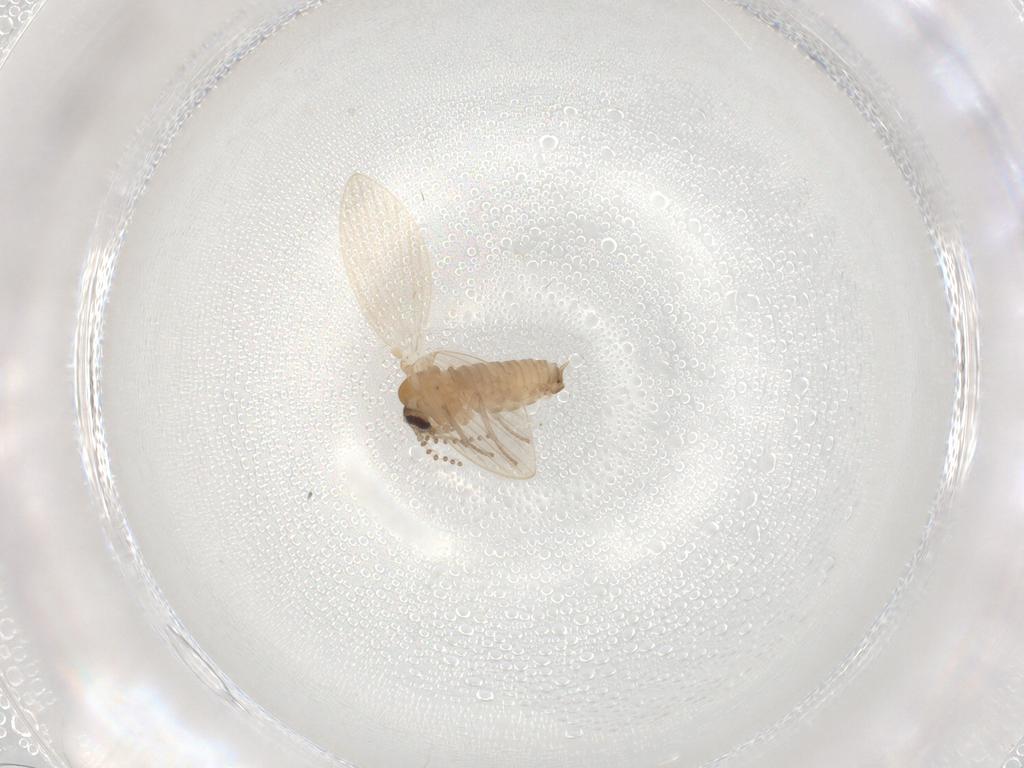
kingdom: Animalia
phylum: Arthropoda
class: Insecta
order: Diptera
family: Psychodidae
